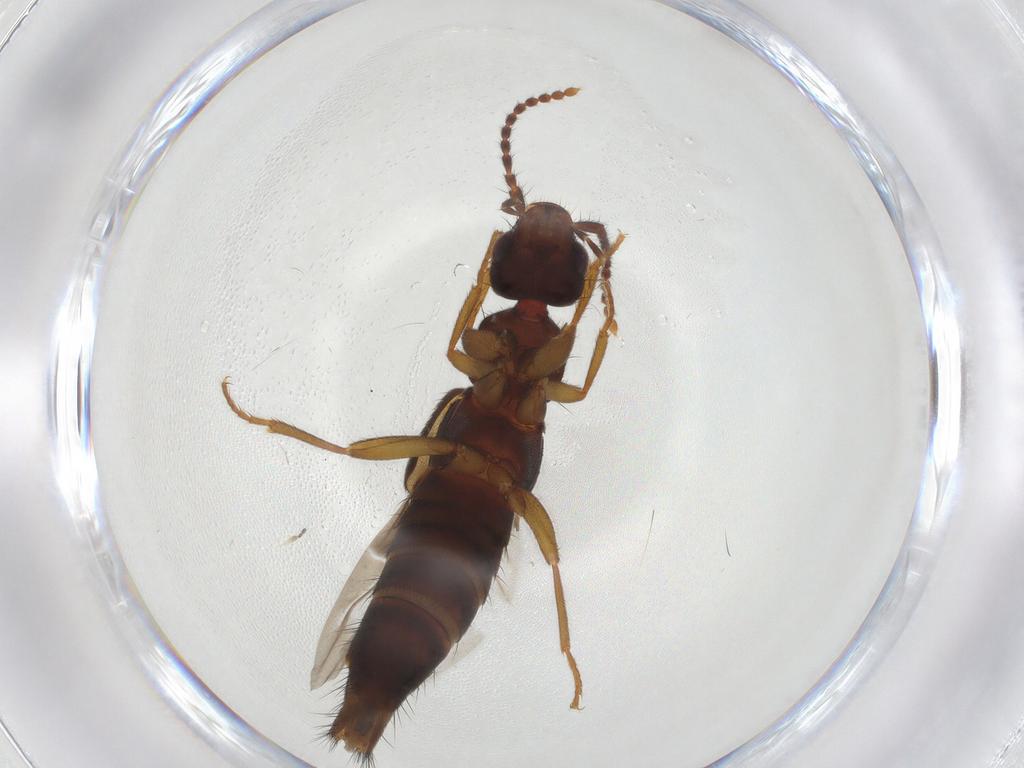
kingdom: Animalia
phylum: Arthropoda
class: Insecta
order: Coleoptera
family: Staphylinidae
